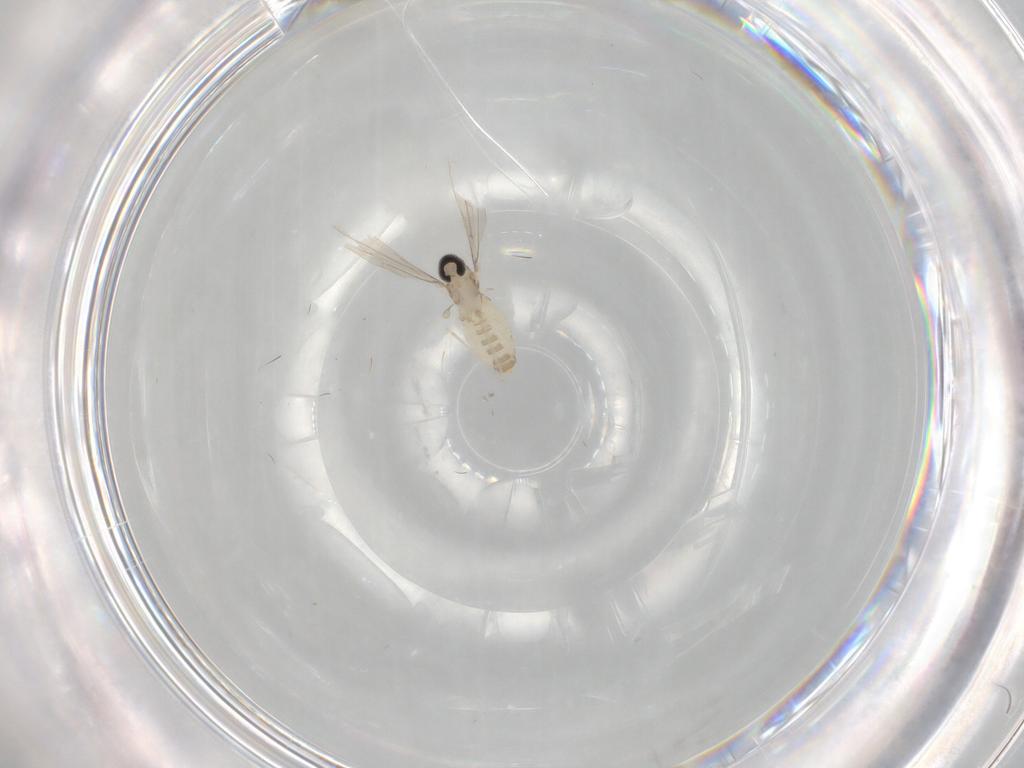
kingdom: Animalia
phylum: Arthropoda
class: Insecta
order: Diptera
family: Cecidomyiidae
